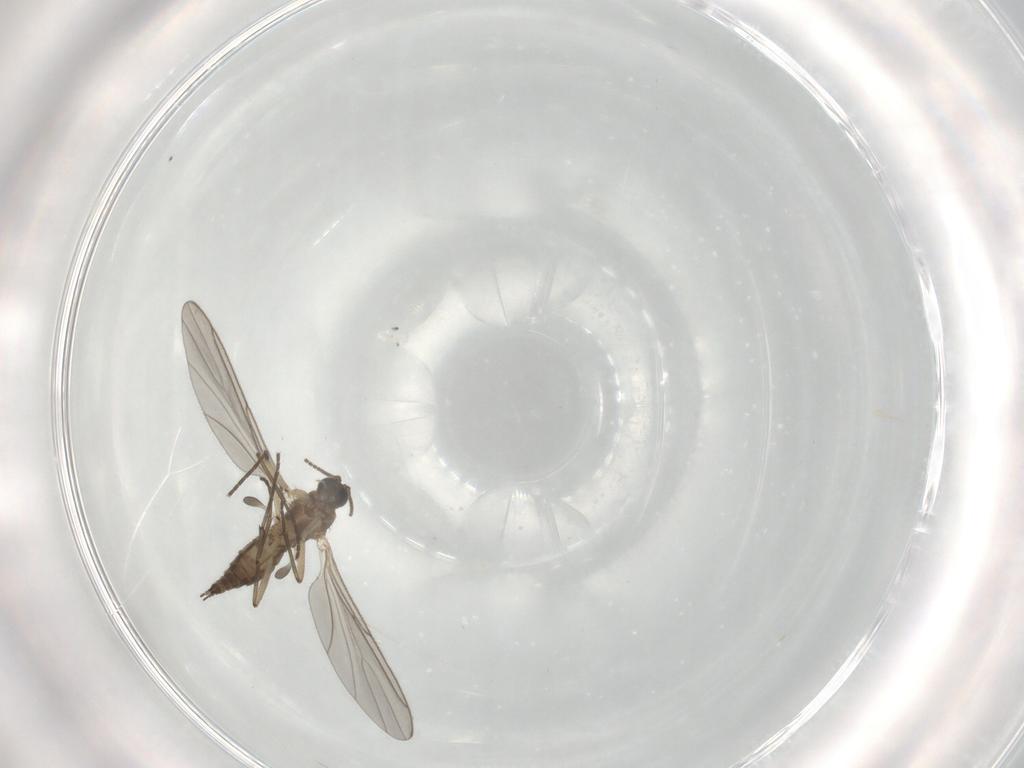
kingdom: Animalia
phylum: Arthropoda
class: Insecta
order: Diptera
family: Sciaridae
